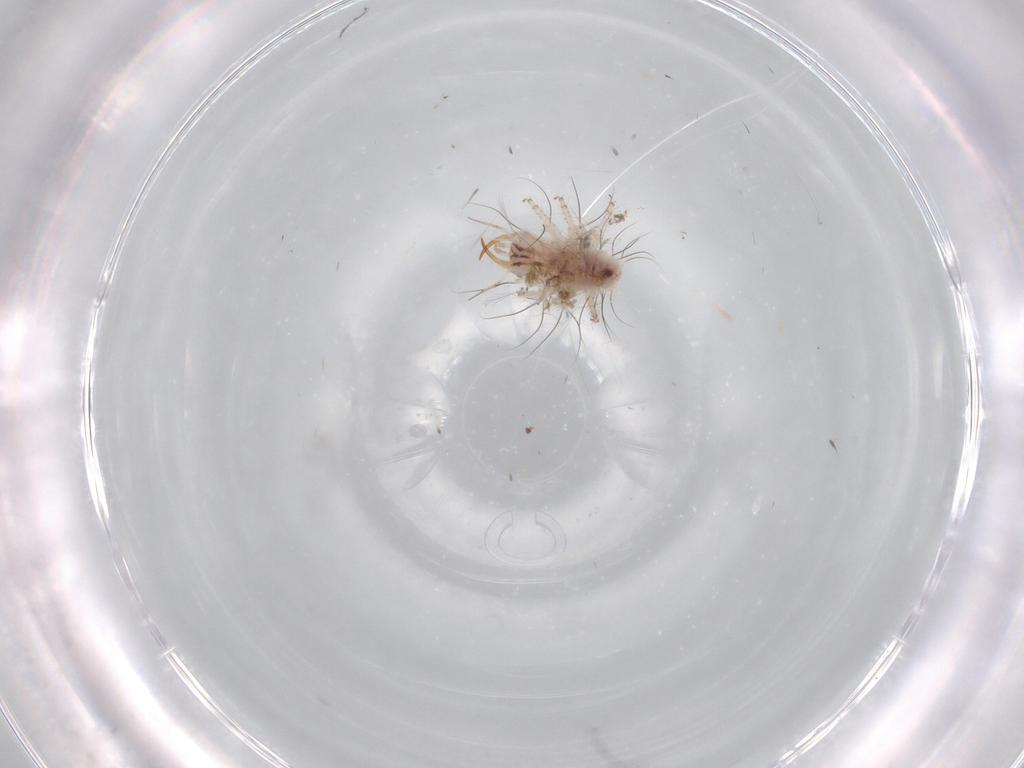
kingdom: Animalia
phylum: Arthropoda
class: Insecta
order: Neuroptera
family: Chrysopidae
